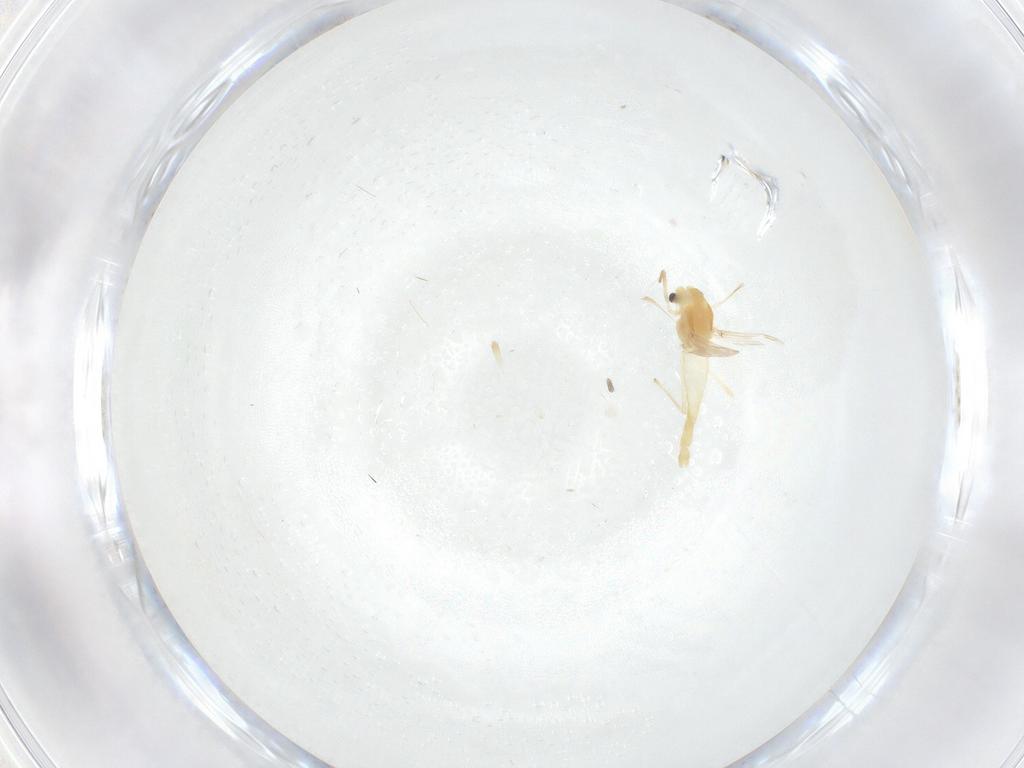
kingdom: Animalia
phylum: Arthropoda
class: Insecta
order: Diptera
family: Chironomidae
